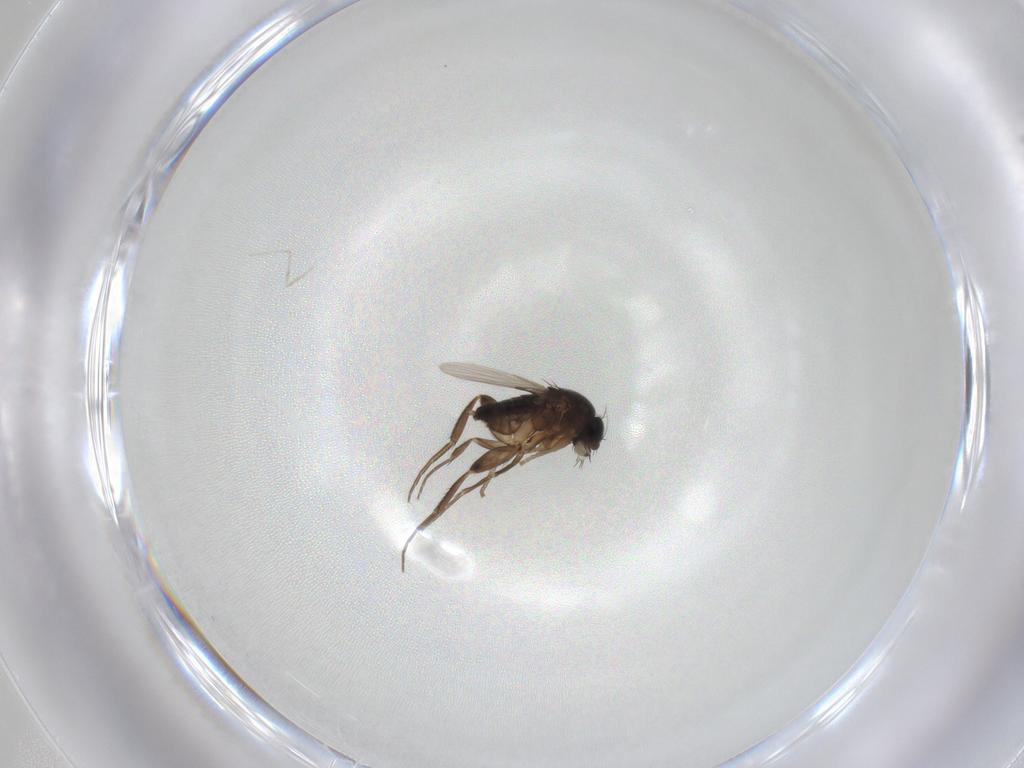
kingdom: Animalia
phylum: Arthropoda
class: Insecta
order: Diptera
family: Phoridae
